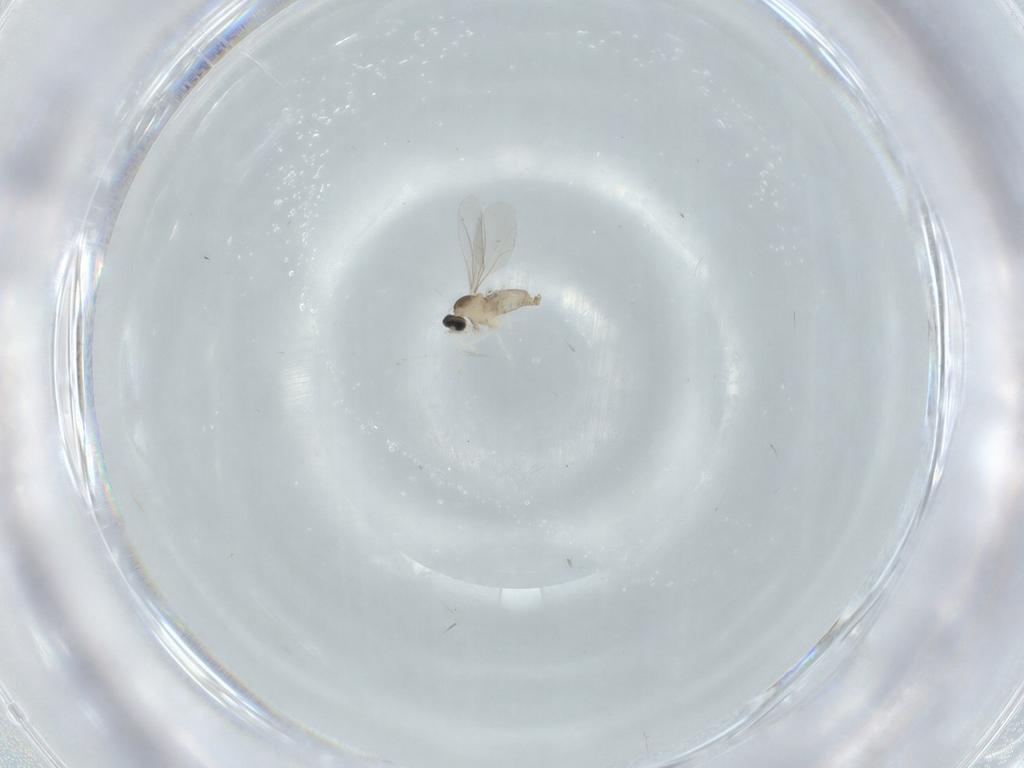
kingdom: Animalia
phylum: Arthropoda
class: Insecta
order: Diptera
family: Cecidomyiidae
